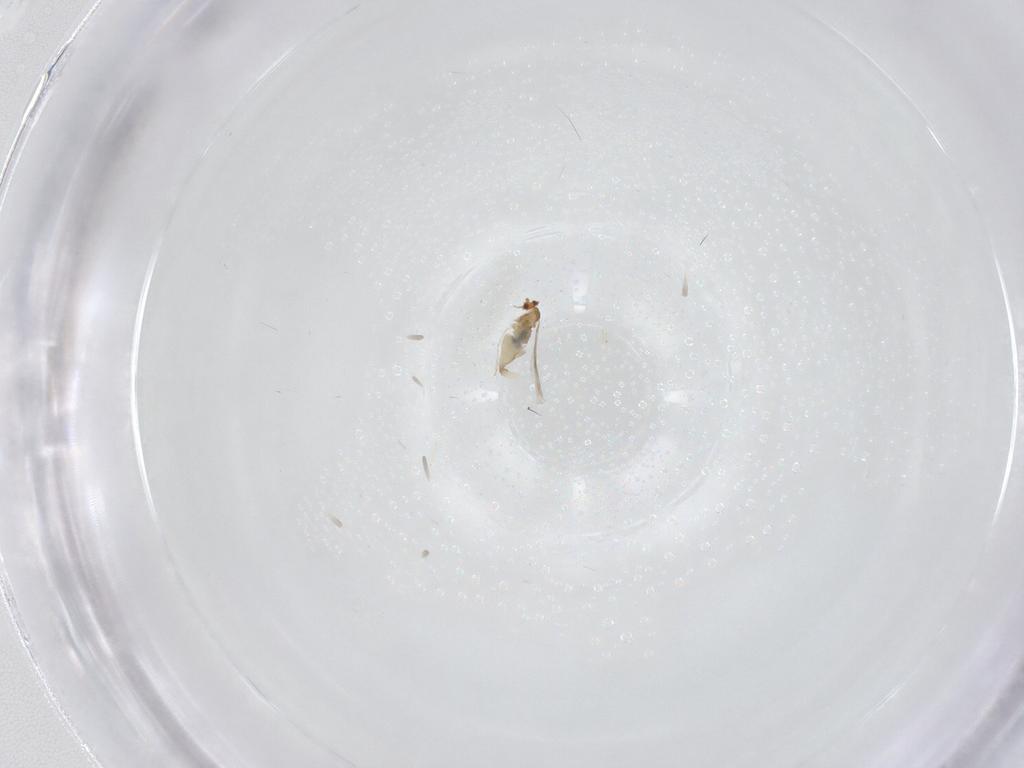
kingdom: Animalia
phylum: Arthropoda
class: Insecta
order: Diptera
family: Cecidomyiidae
